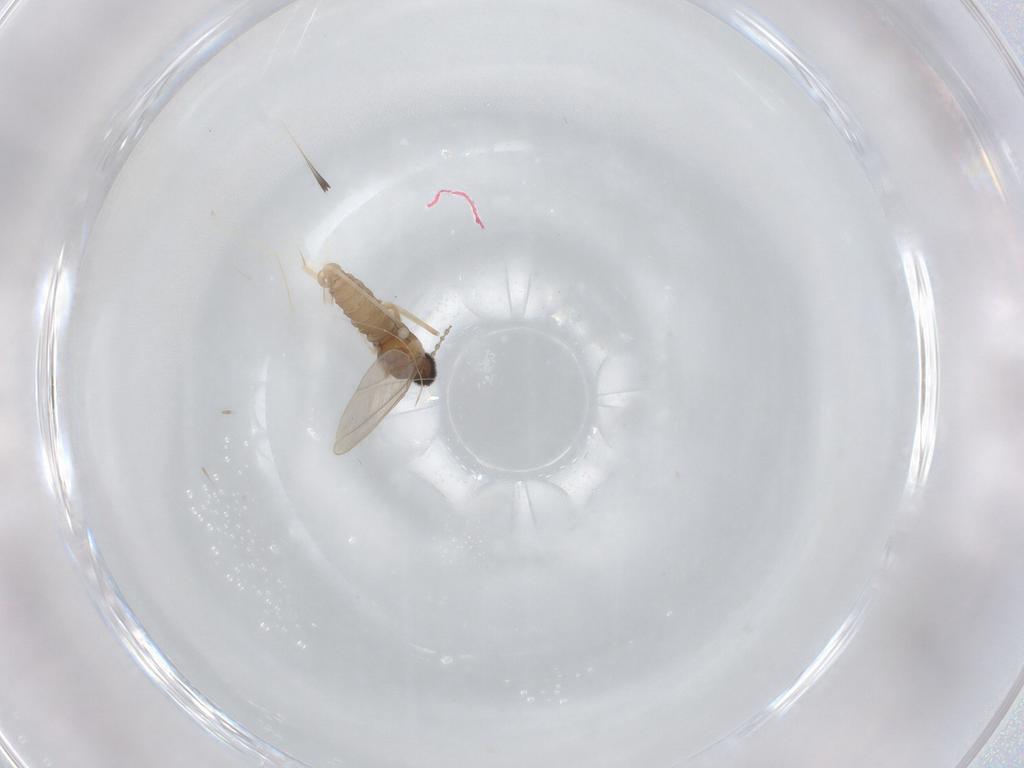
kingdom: Animalia
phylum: Arthropoda
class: Insecta
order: Diptera
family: Cecidomyiidae
